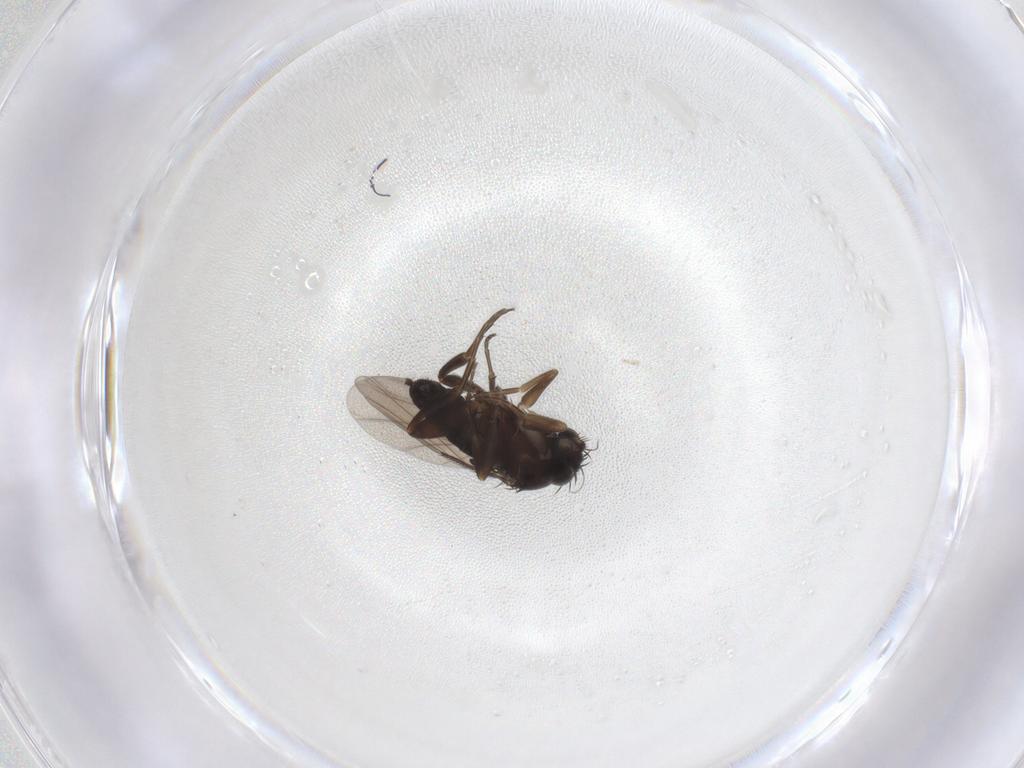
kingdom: Animalia
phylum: Arthropoda
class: Insecta
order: Diptera
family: Phoridae
